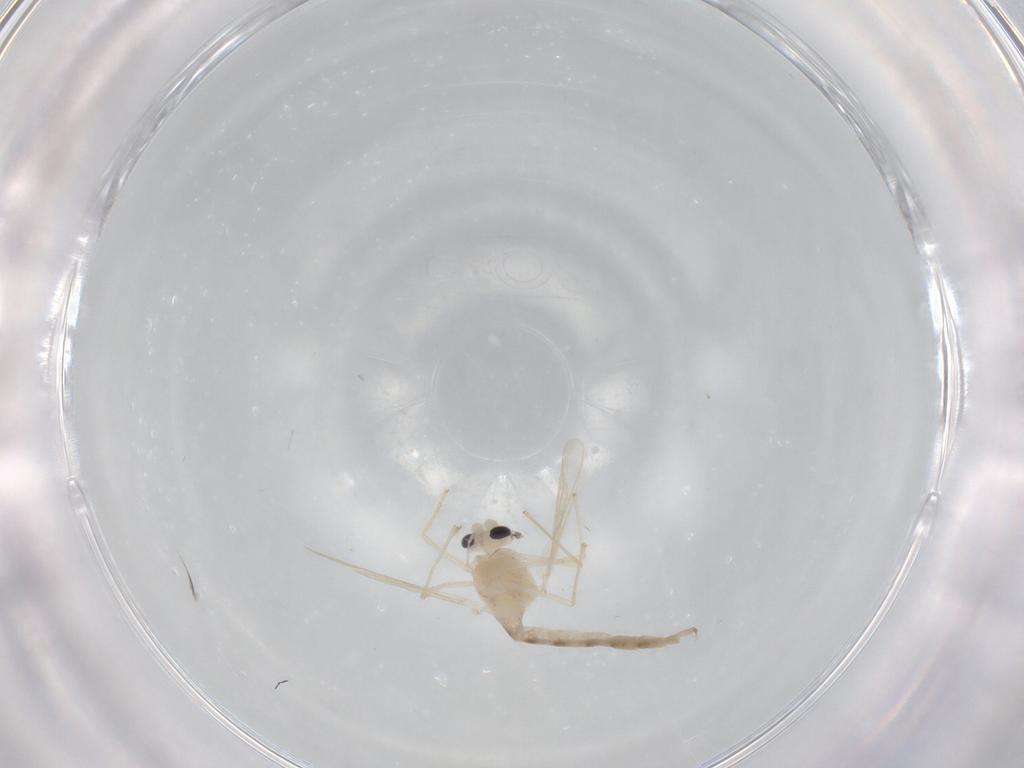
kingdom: Animalia
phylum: Arthropoda
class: Insecta
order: Diptera
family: Chironomidae
